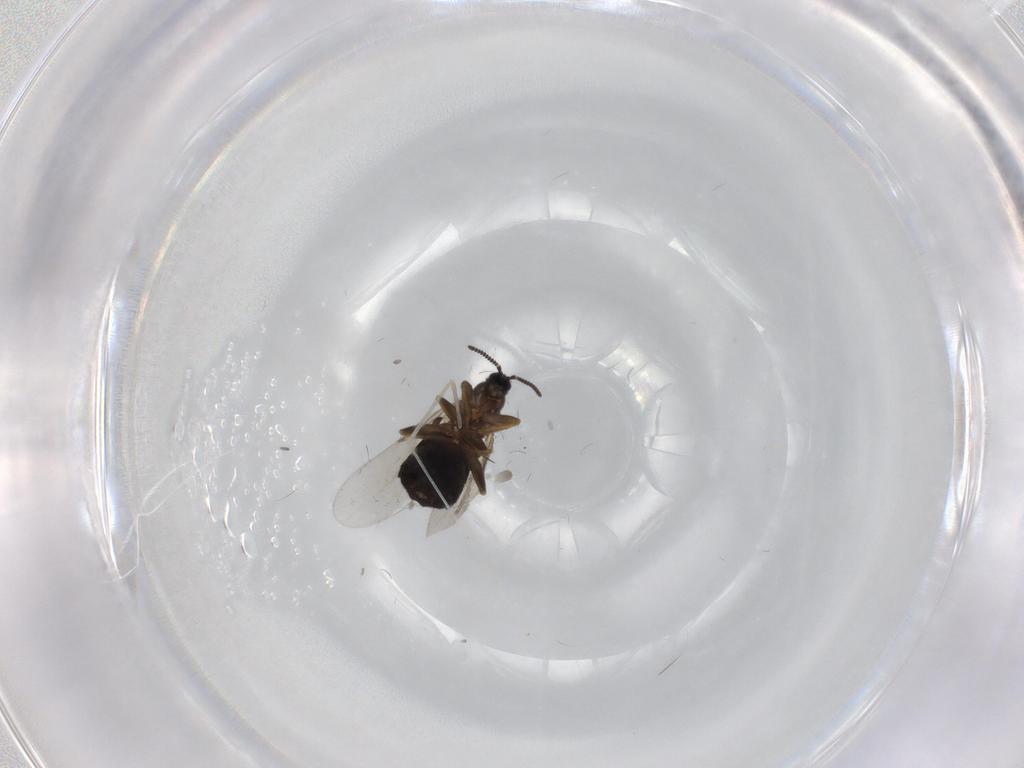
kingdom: Animalia
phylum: Arthropoda
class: Insecta
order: Diptera
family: Scatopsidae
